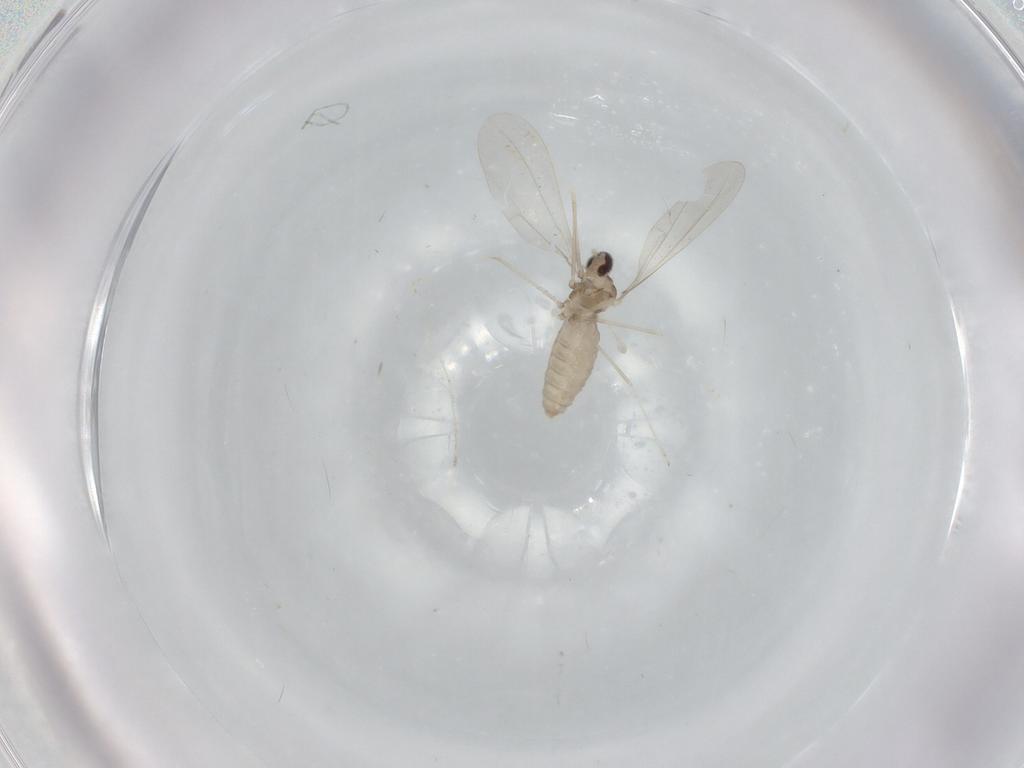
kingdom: Animalia
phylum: Arthropoda
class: Insecta
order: Diptera
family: Cecidomyiidae
